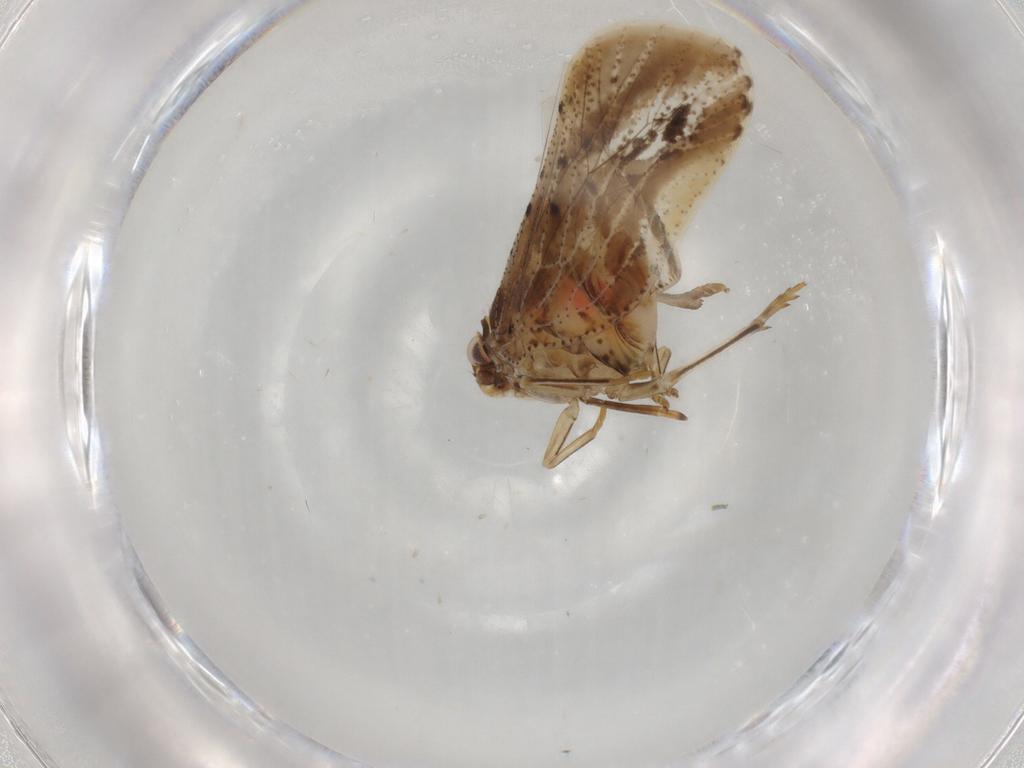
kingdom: Animalia
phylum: Arthropoda
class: Insecta
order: Hemiptera
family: Cixiidae
